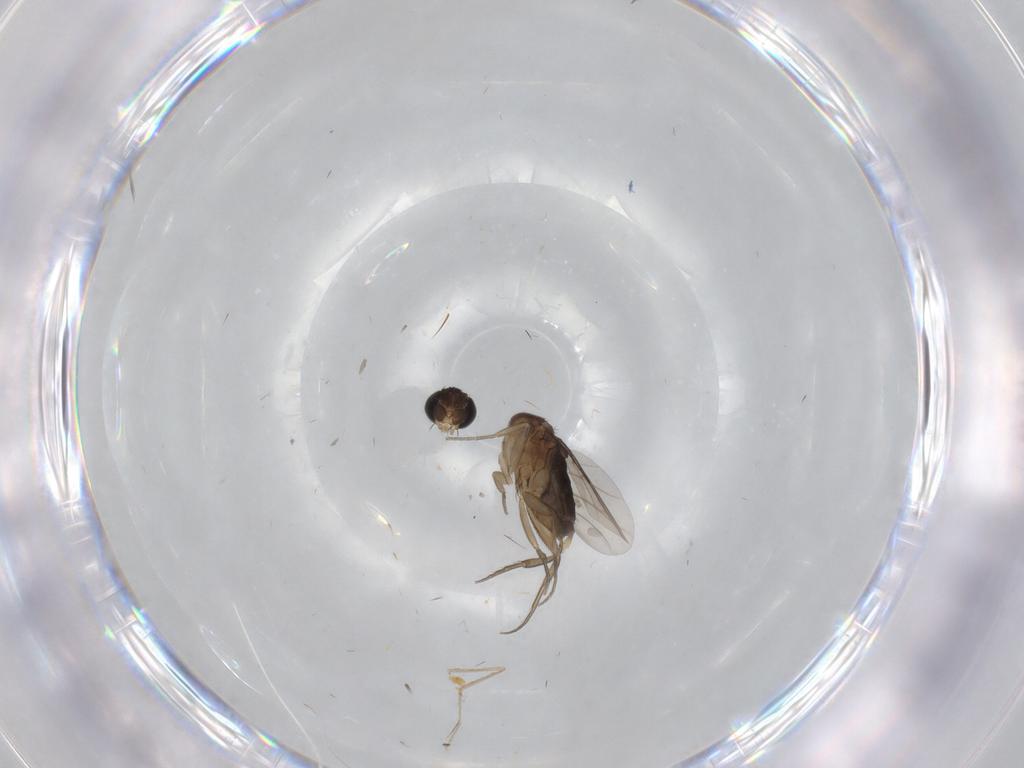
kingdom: Animalia
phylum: Arthropoda
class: Insecta
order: Diptera
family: Phoridae
